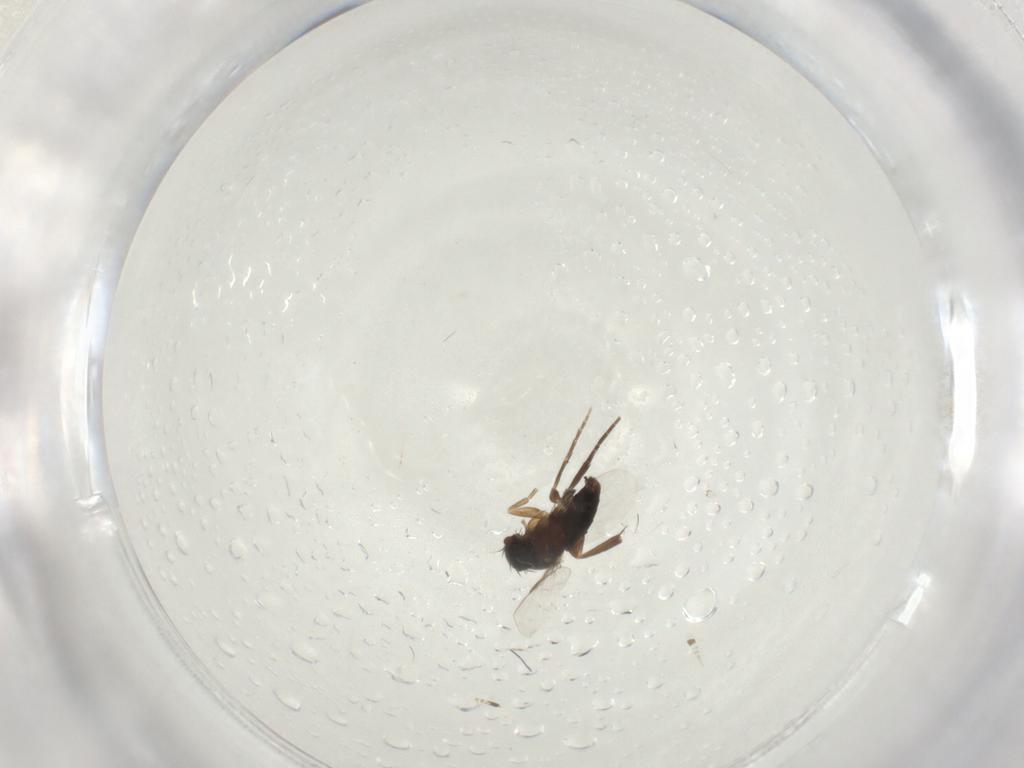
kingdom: Animalia
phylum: Arthropoda
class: Insecta
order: Diptera
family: Phoridae
